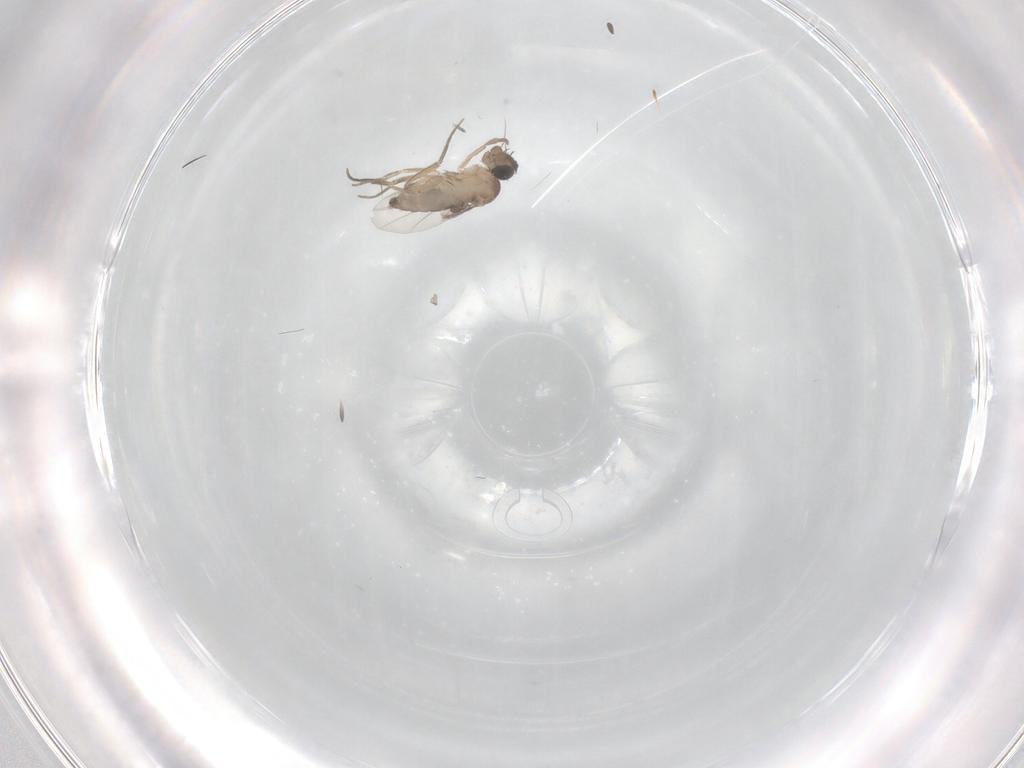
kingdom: Animalia
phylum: Arthropoda
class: Insecta
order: Diptera
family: Phoridae
